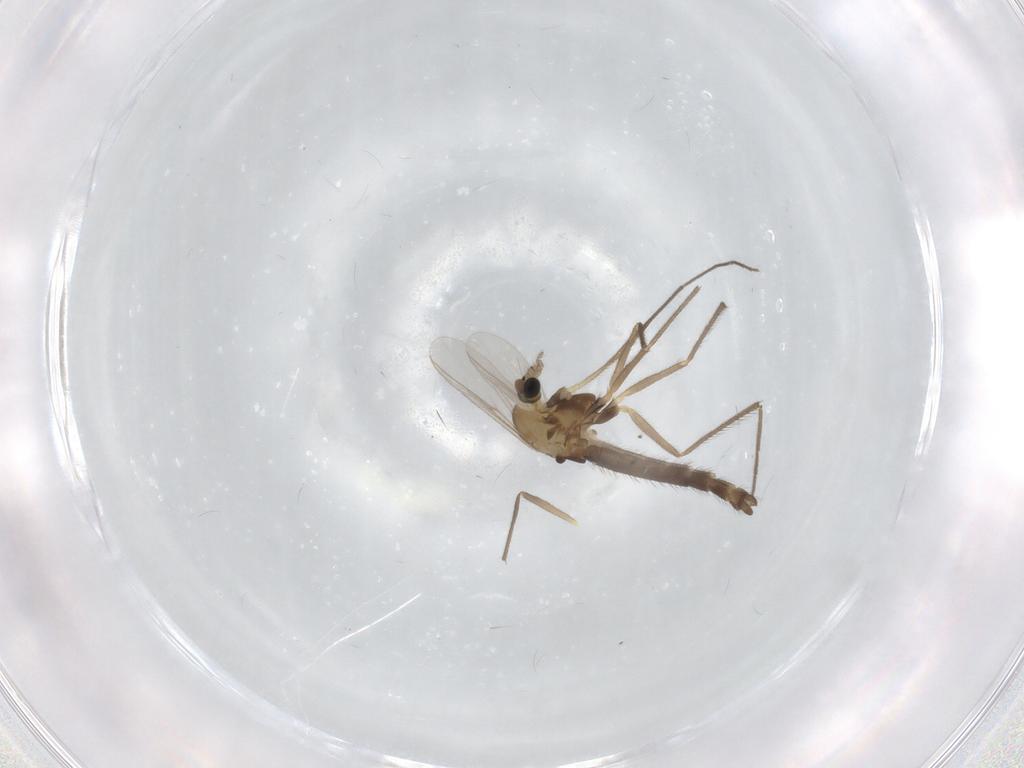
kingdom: Animalia
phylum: Arthropoda
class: Insecta
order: Diptera
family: Chironomidae
